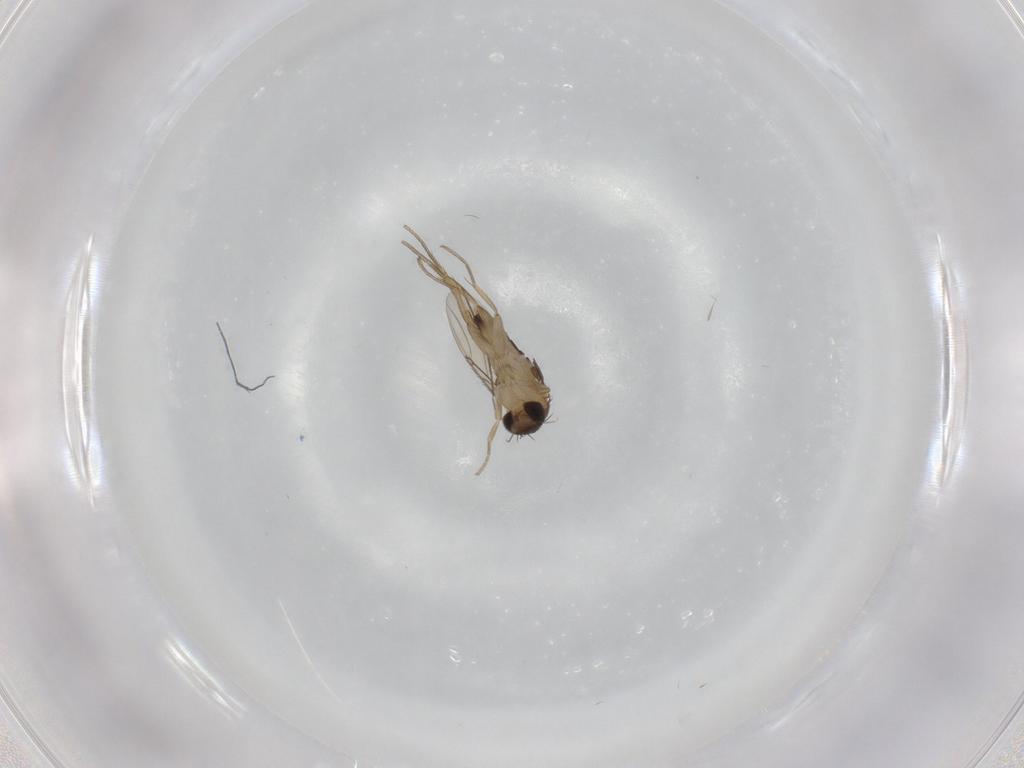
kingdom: Animalia
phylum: Arthropoda
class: Insecta
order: Diptera
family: Phoridae
